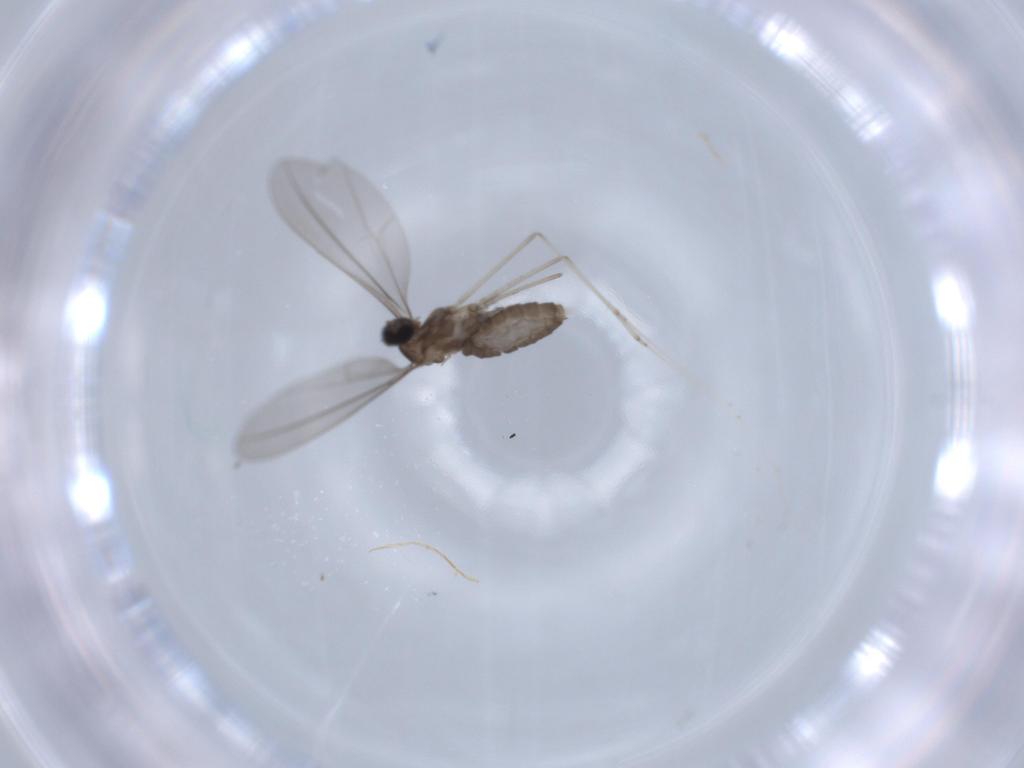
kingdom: Animalia
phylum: Arthropoda
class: Insecta
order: Diptera
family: Cecidomyiidae
